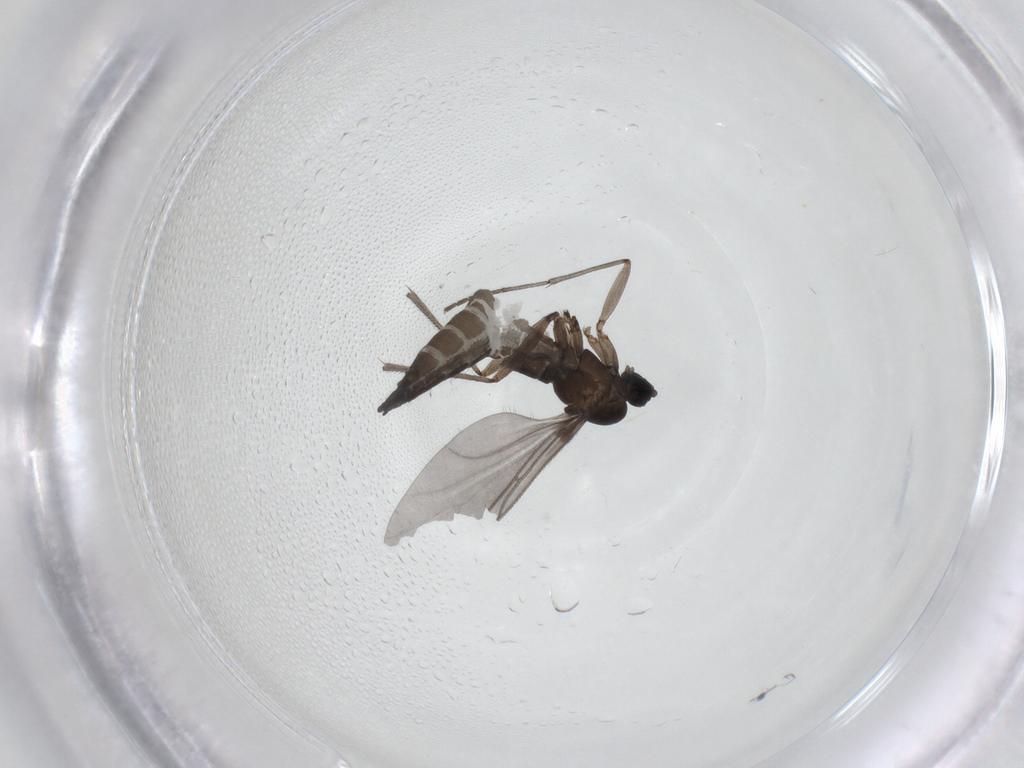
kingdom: Animalia
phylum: Arthropoda
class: Insecta
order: Diptera
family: Sciaridae
